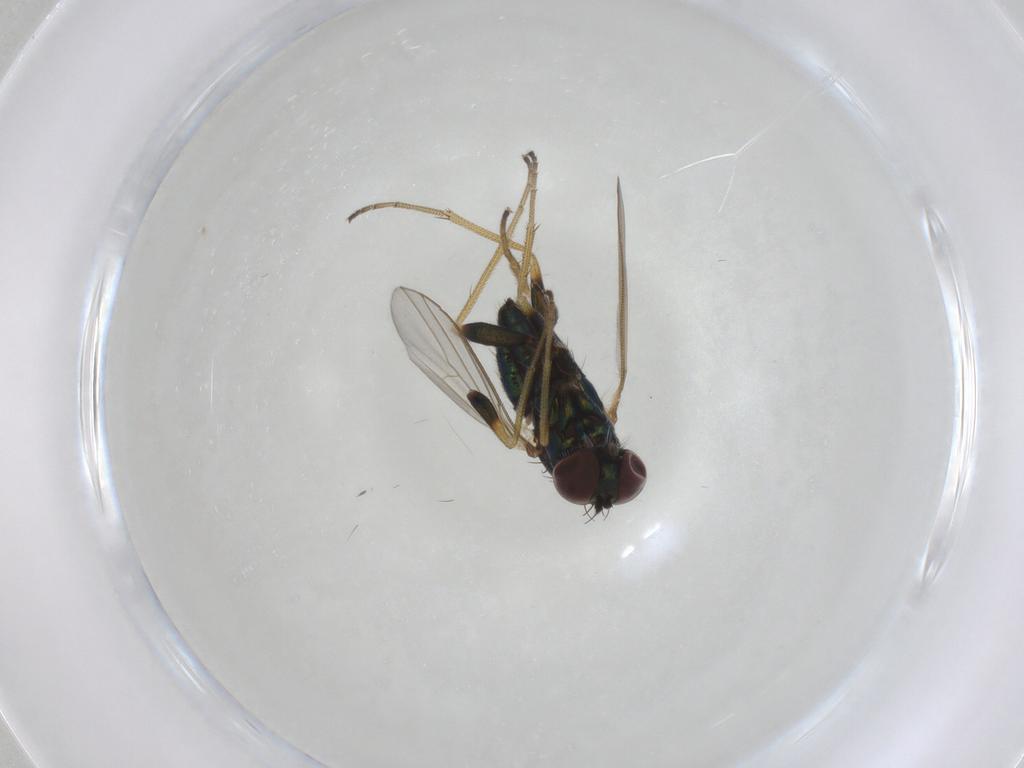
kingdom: Animalia
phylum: Arthropoda
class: Insecta
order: Diptera
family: Dolichopodidae
